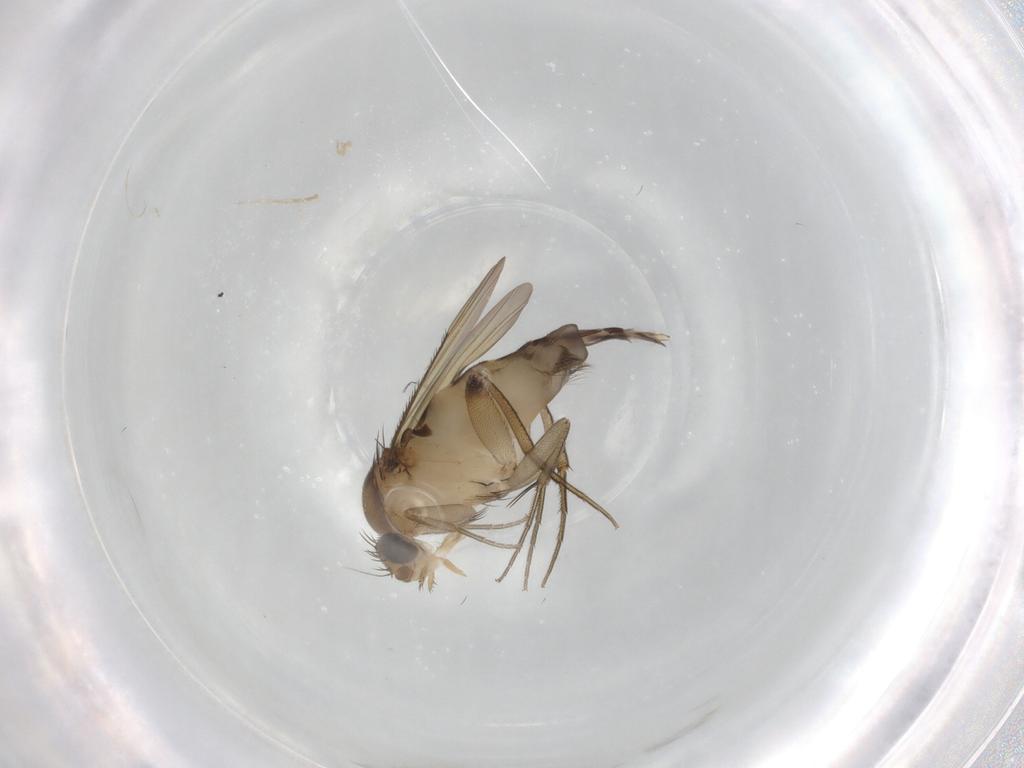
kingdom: Animalia
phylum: Arthropoda
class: Insecta
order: Diptera
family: Phoridae
